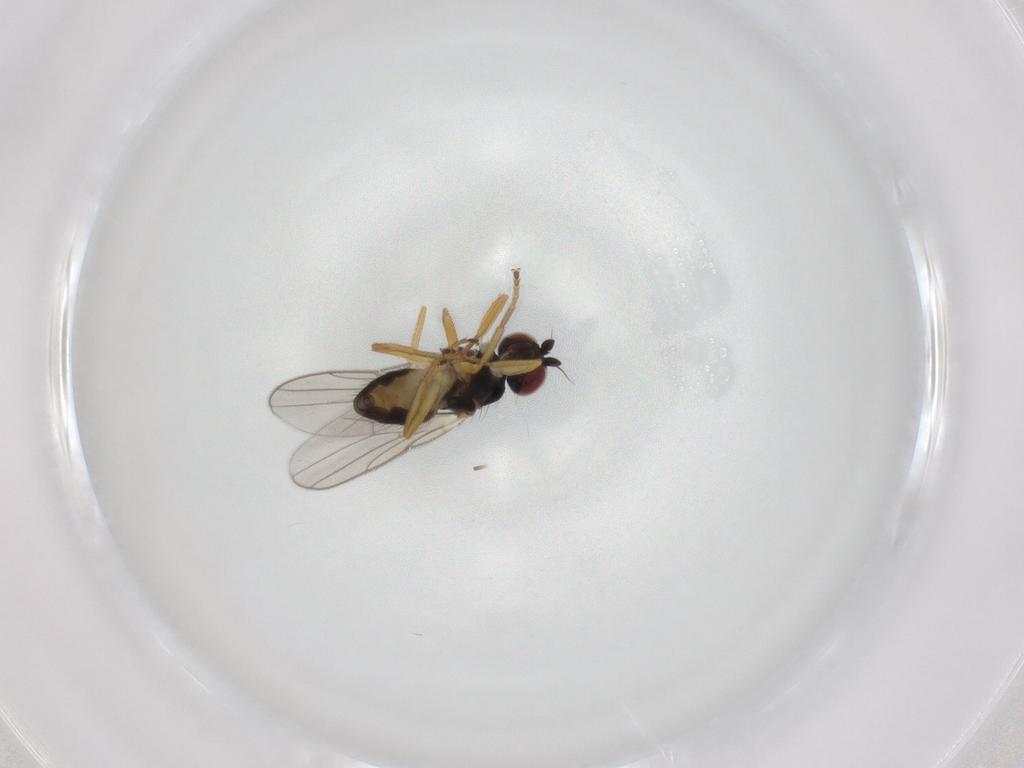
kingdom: Animalia
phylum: Arthropoda
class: Insecta
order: Diptera
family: Chloropidae
